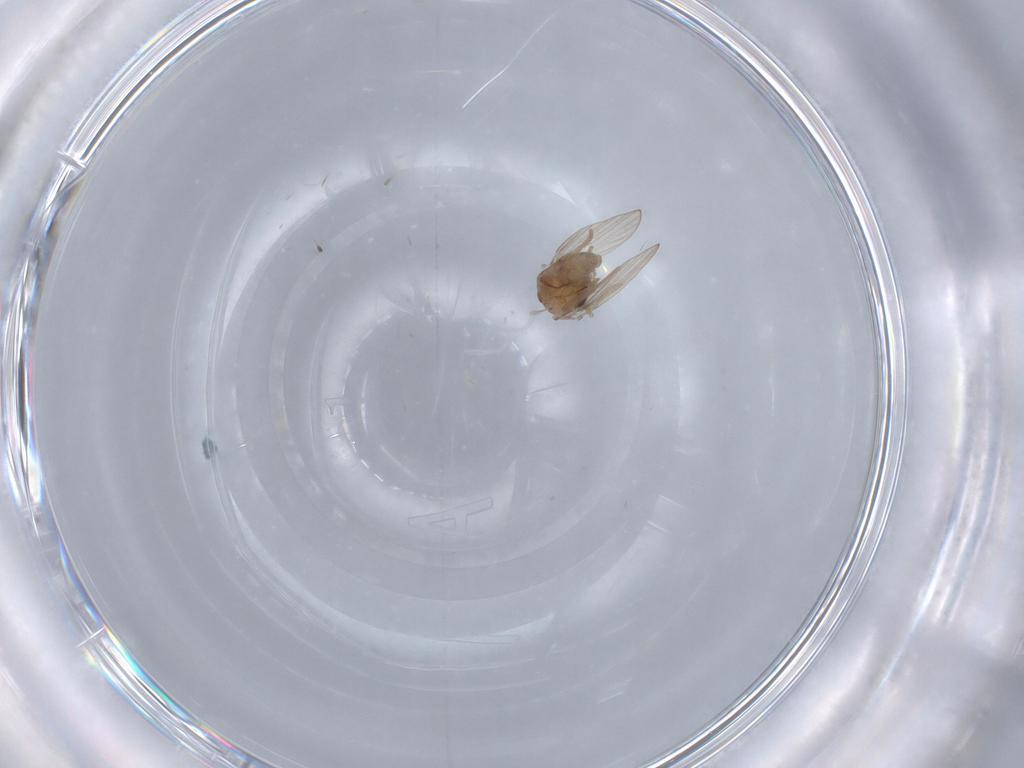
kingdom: Animalia
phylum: Arthropoda
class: Insecta
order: Diptera
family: Psychodidae
